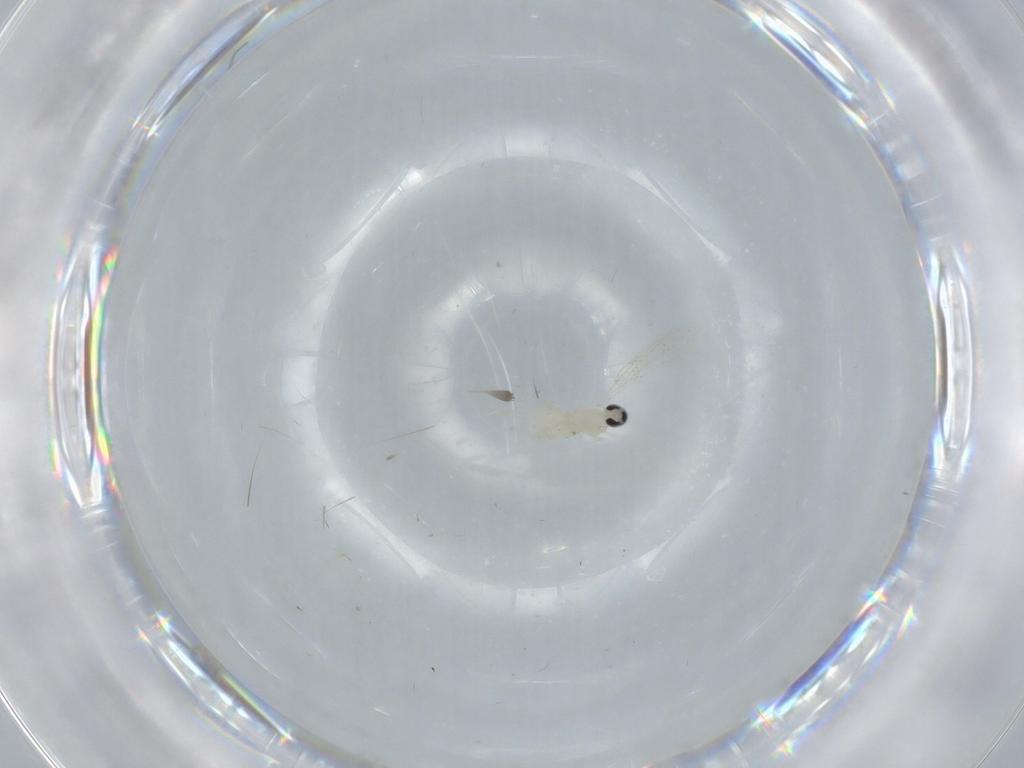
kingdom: Animalia
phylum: Arthropoda
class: Insecta
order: Diptera
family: Cecidomyiidae
